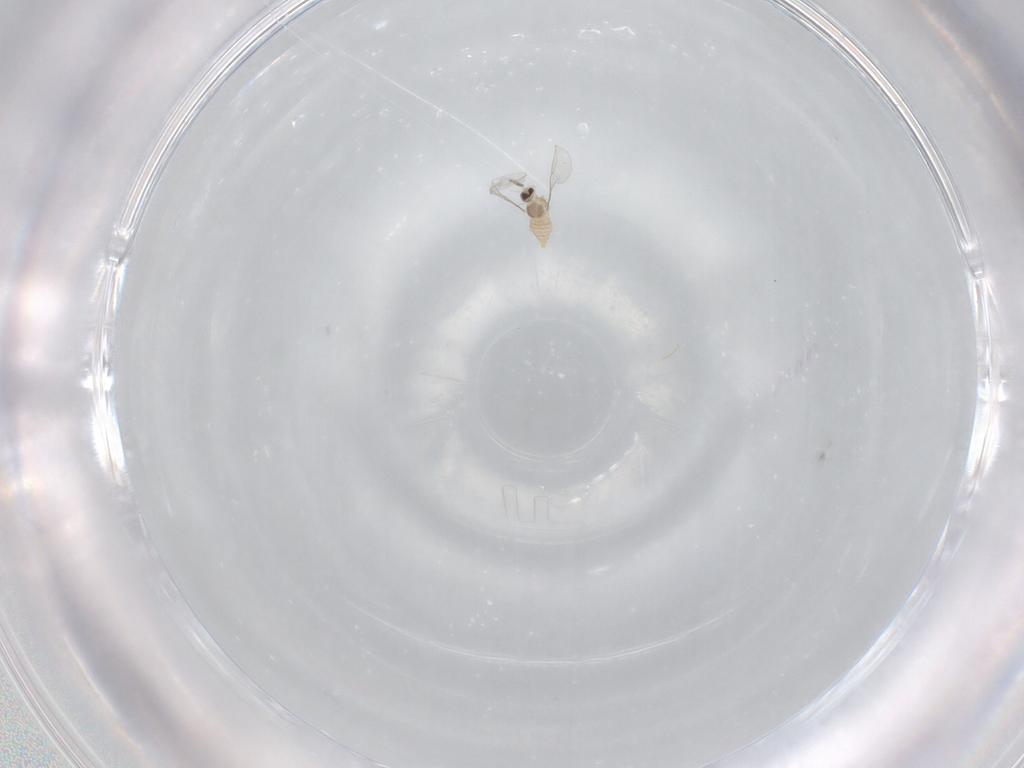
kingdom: Animalia
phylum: Arthropoda
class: Insecta
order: Diptera
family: Cecidomyiidae
